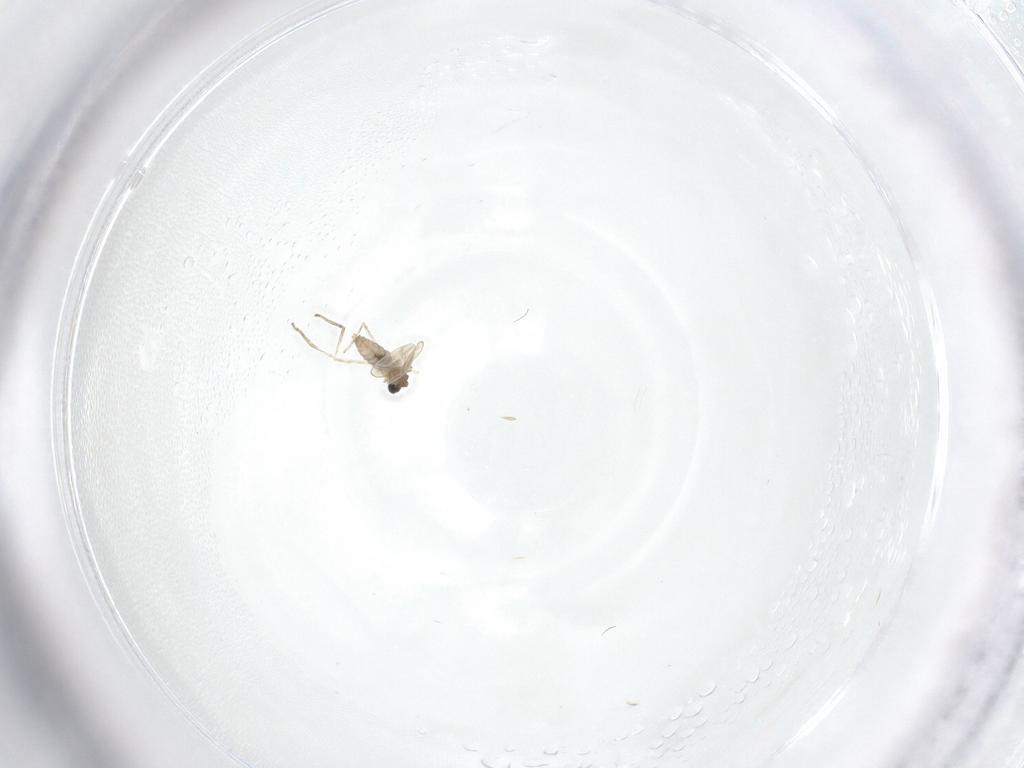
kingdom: Animalia
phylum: Arthropoda
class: Insecta
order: Diptera
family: Cecidomyiidae
